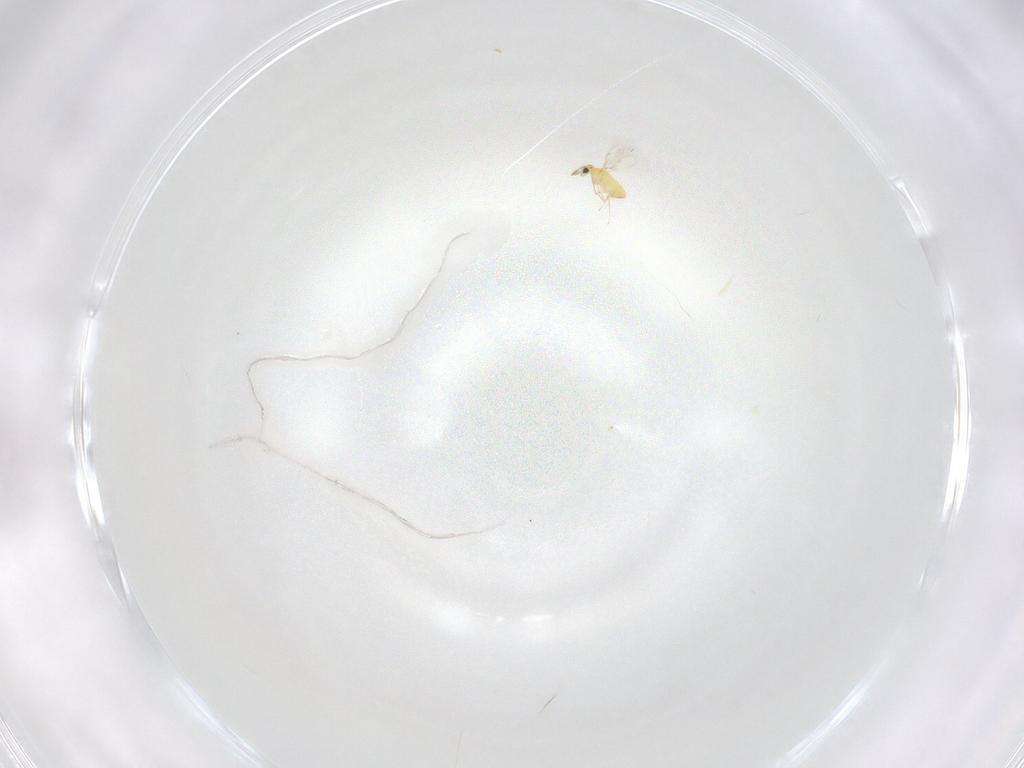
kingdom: Animalia
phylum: Arthropoda
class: Insecta
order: Hymenoptera
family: Trichogrammatidae
